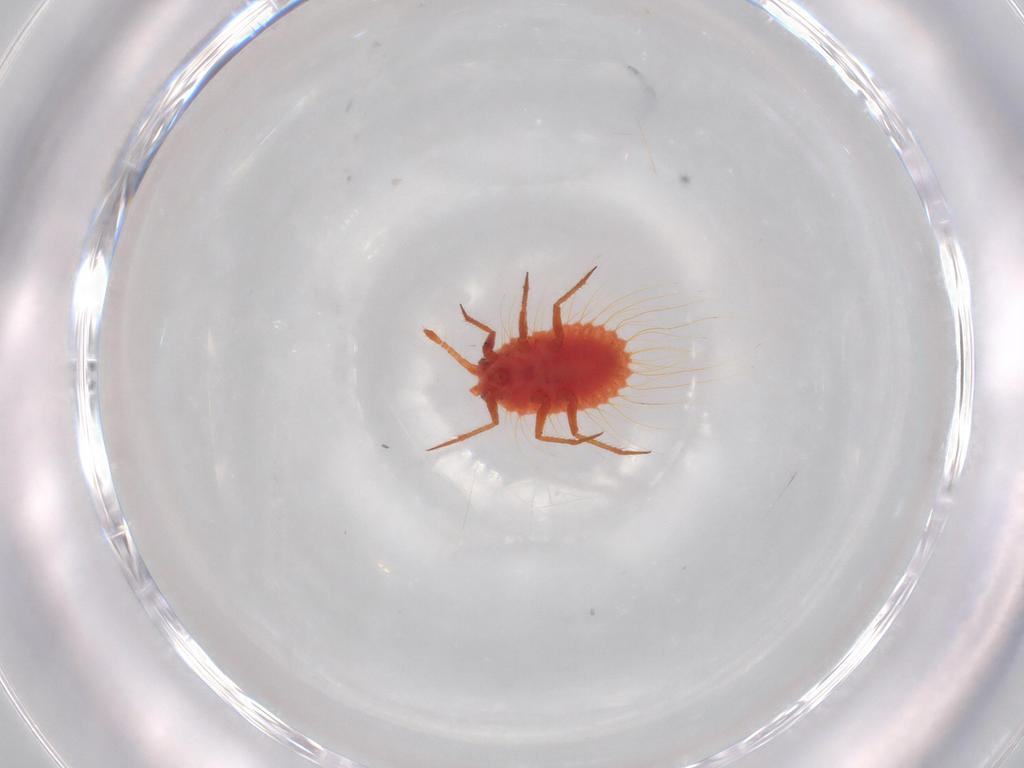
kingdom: Animalia
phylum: Arthropoda
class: Insecta
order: Hemiptera
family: Monophlebidae
